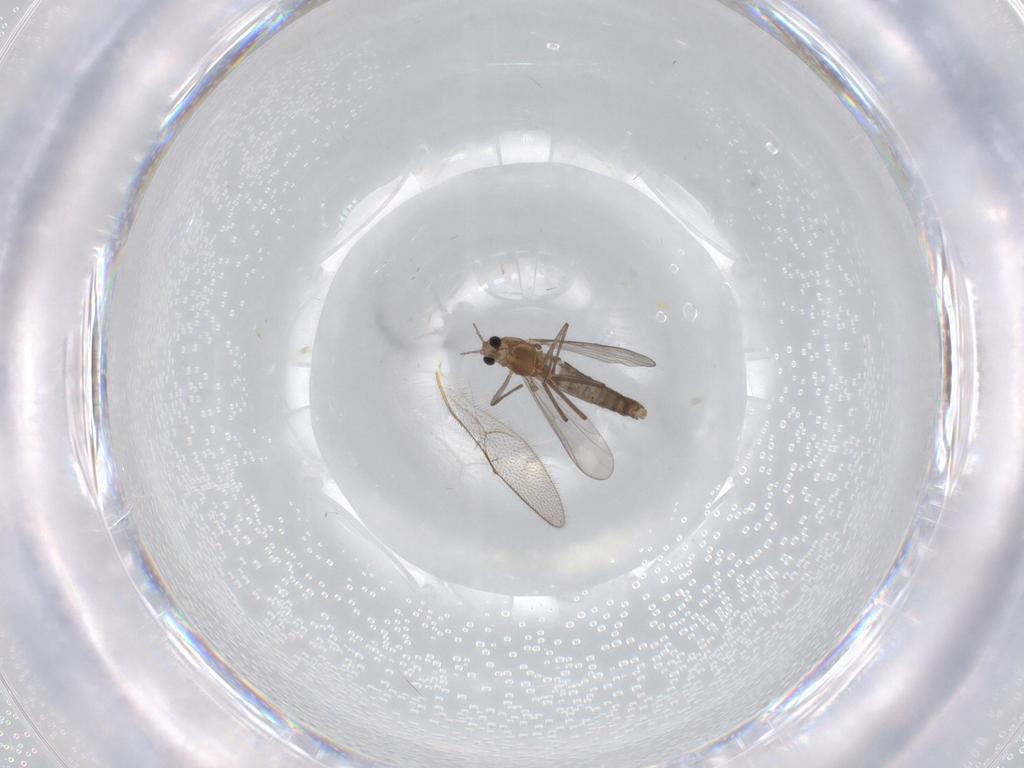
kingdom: Animalia
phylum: Arthropoda
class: Insecta
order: Diptera
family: Chironomidae
